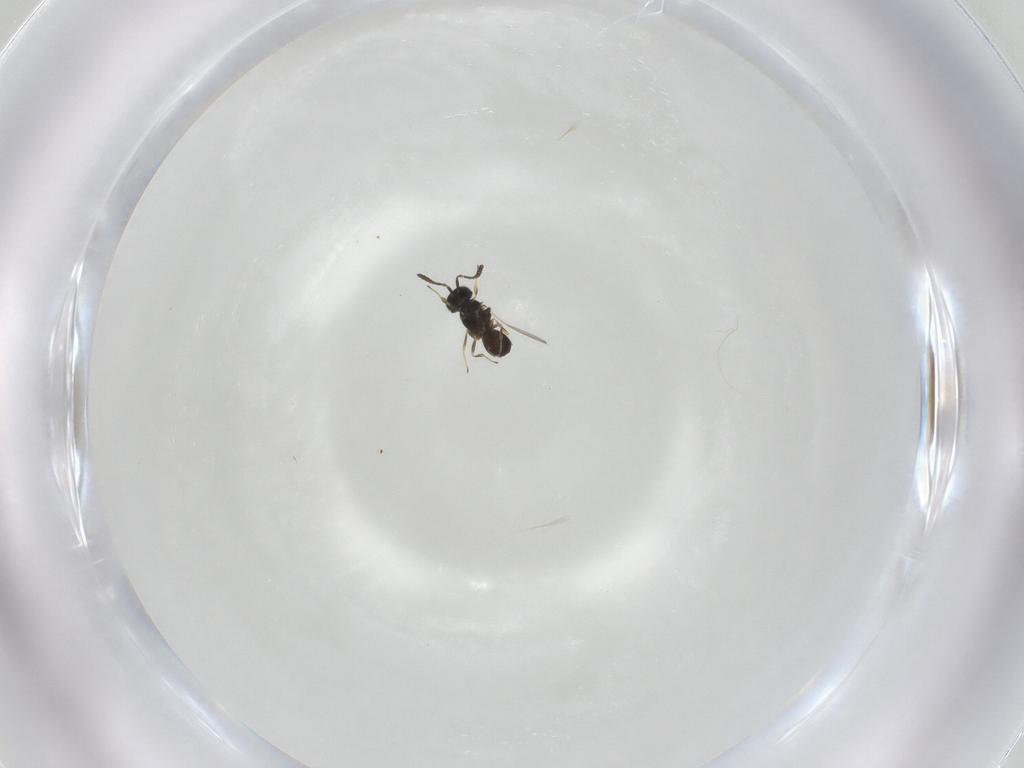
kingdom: Animalia
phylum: Arthropoda
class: Insecta
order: Hymenoptera
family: Scelionidae
